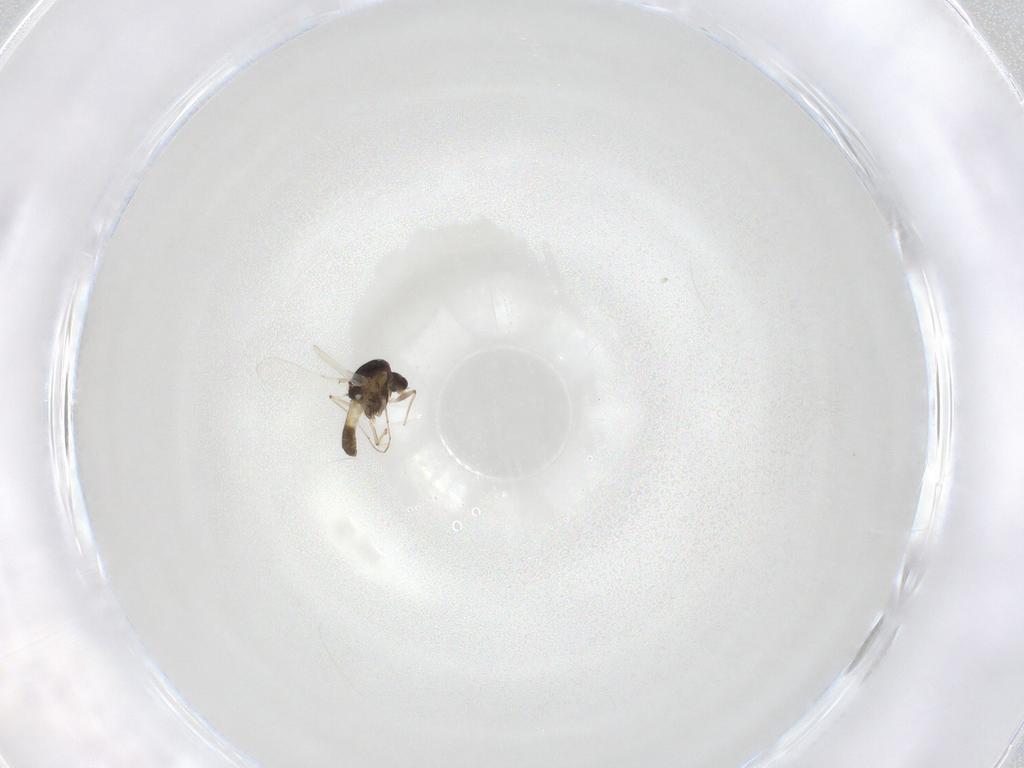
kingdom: Animalia
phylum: Arthropoda
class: Insecta
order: Diptera
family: Chironomidae
